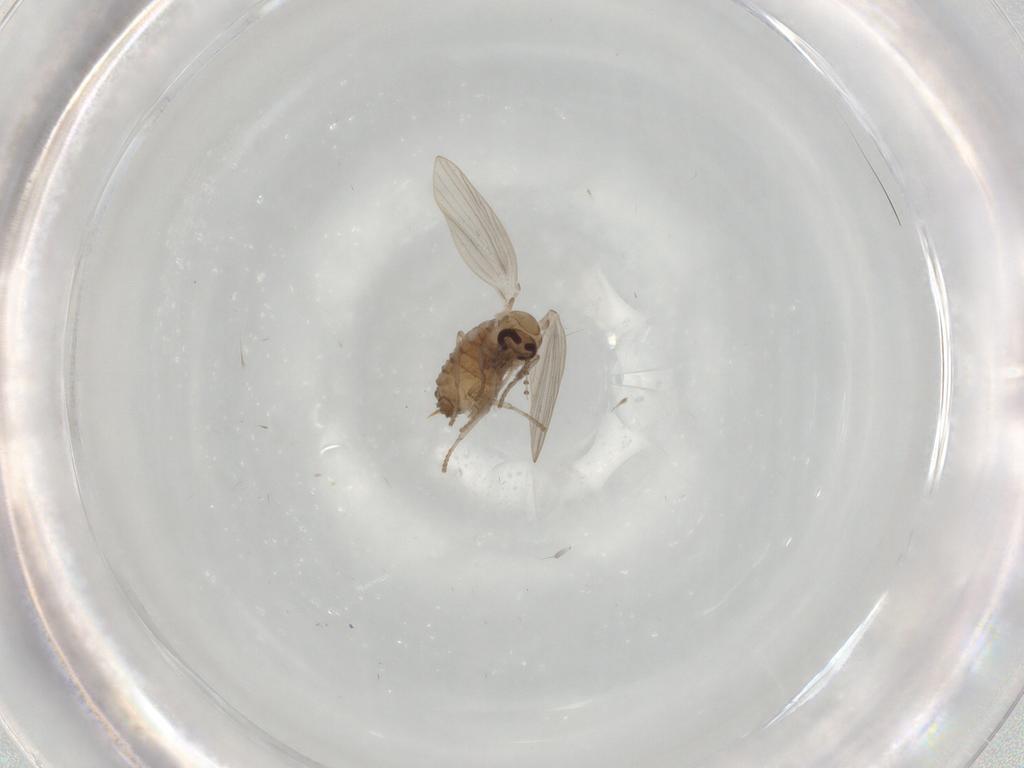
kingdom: Animalia
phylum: Arthropoda
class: Insecta
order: Diptera
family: Psychodidae
